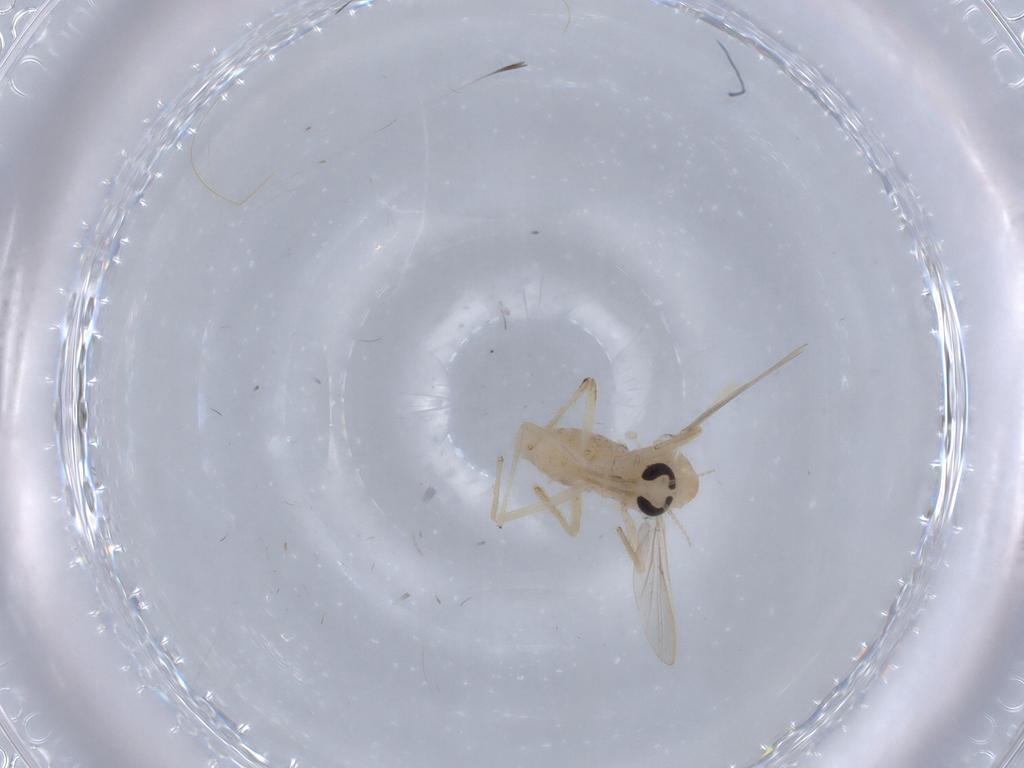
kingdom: Animalia
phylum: Arthropoda
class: Insecta
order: Diptera
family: Chironomidae
